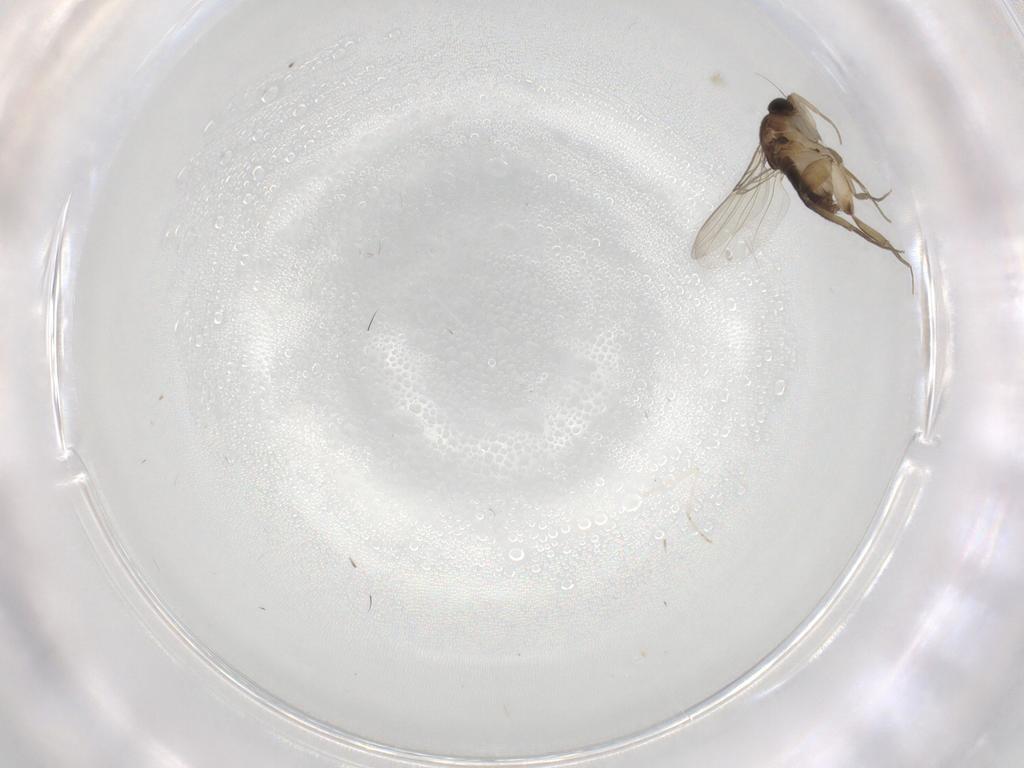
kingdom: Animalia
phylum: Arthropoda
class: Insecta
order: Diptera
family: Phoridae
